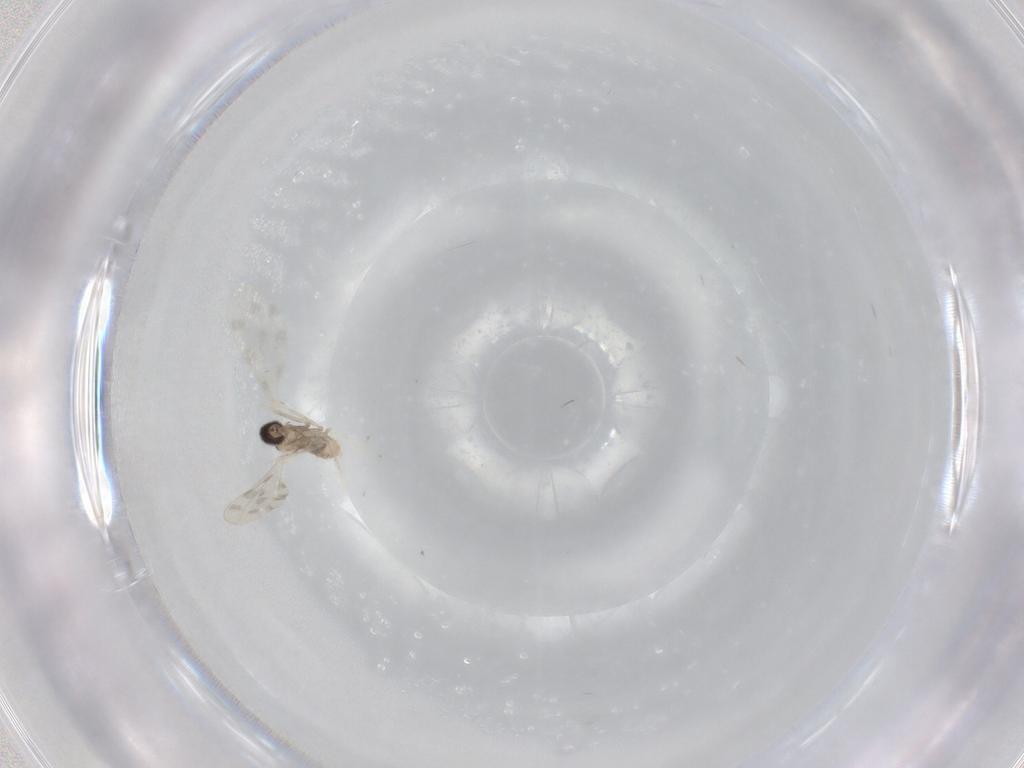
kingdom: Animalia
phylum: Arthropoda
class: Insecta
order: Diptera
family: Cecidomyiidae
